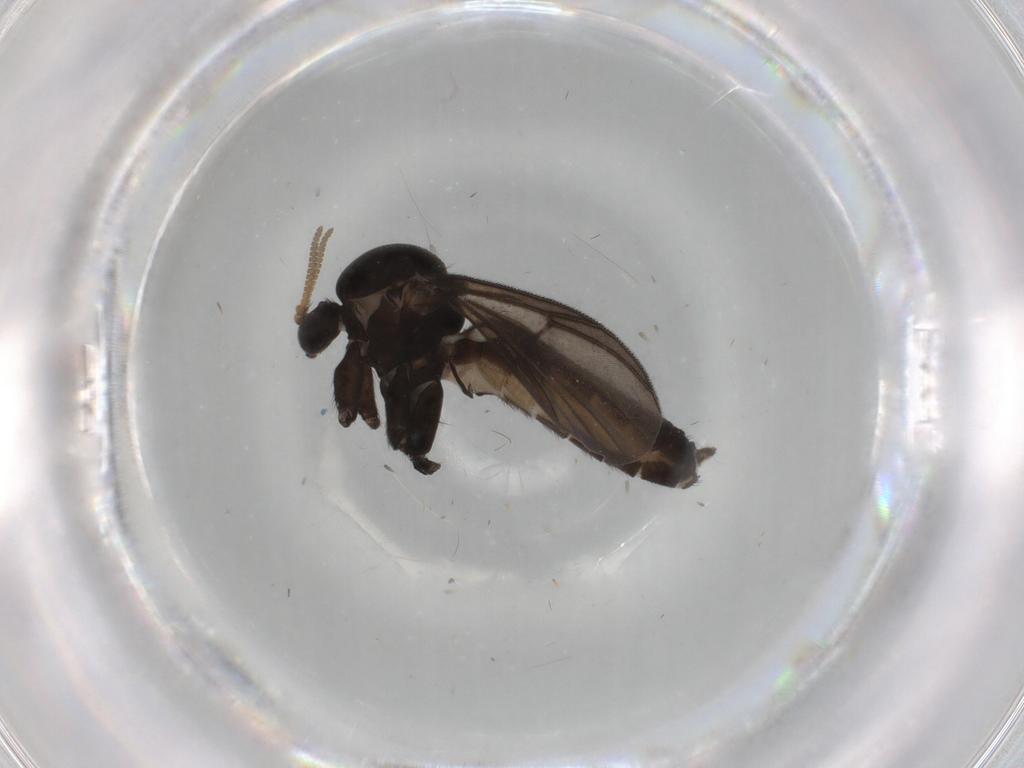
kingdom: Animalia
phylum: Arthropoda
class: Insecta
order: Diptera
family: Mycetophilidae
